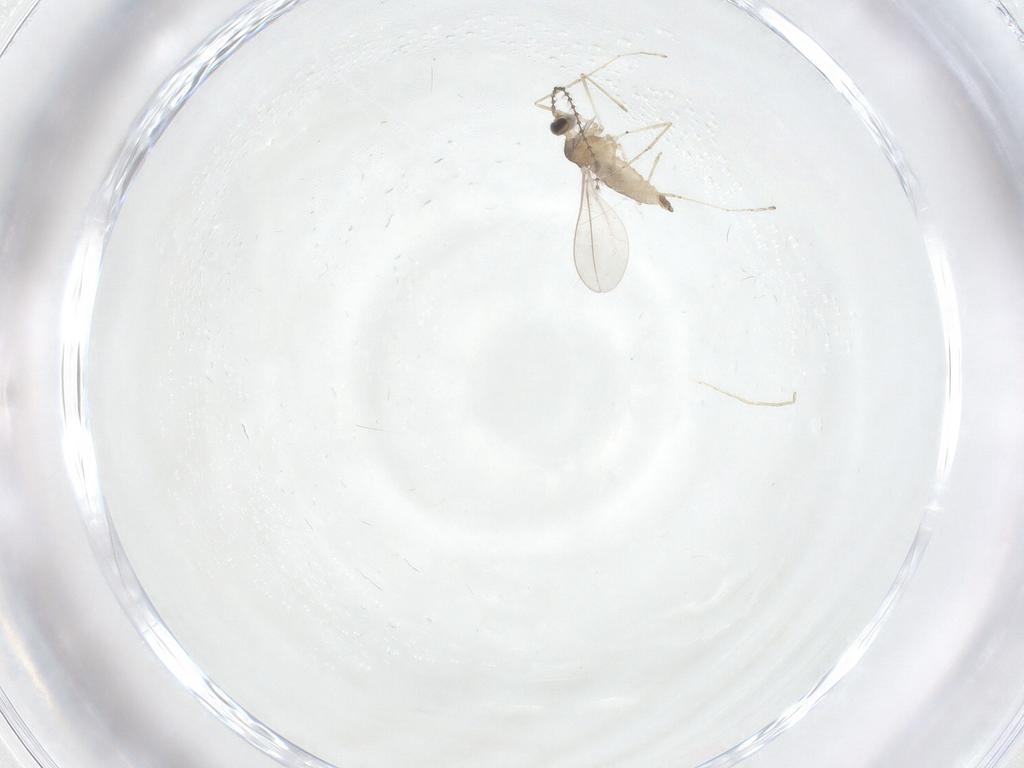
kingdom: Animalia
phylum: Arthropoda
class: Insecta
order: Diptera
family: Cecidomyiidae
